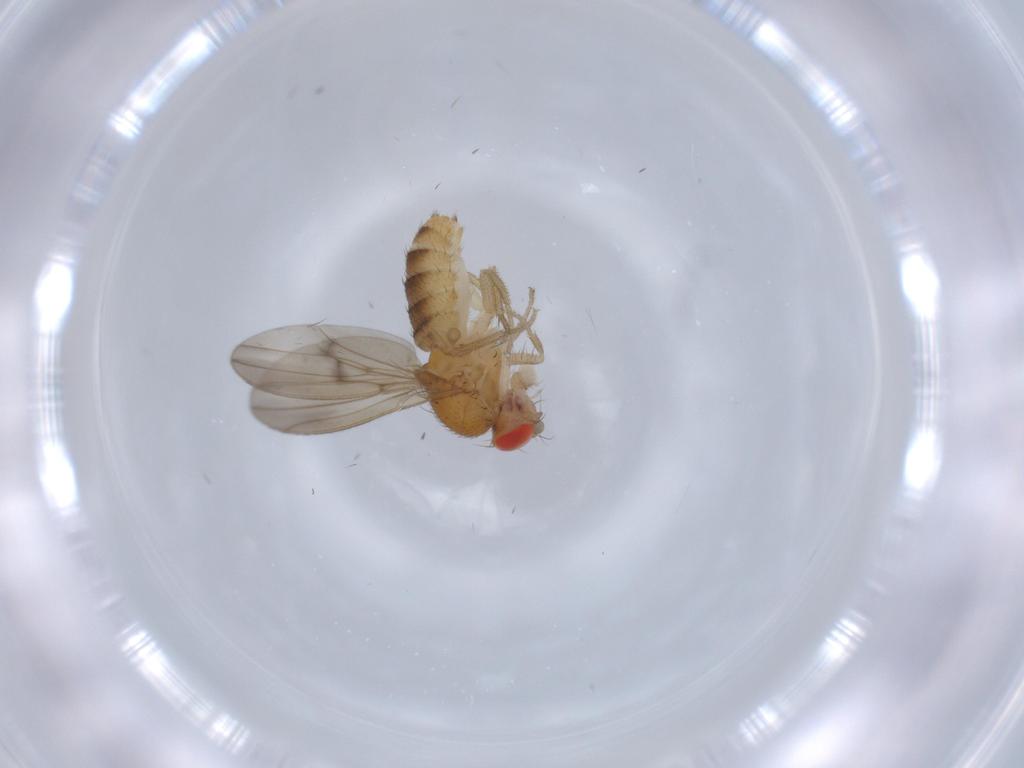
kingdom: Animalia
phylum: Arthropoda
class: Insecta
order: Diptera
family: Drosophilidae
